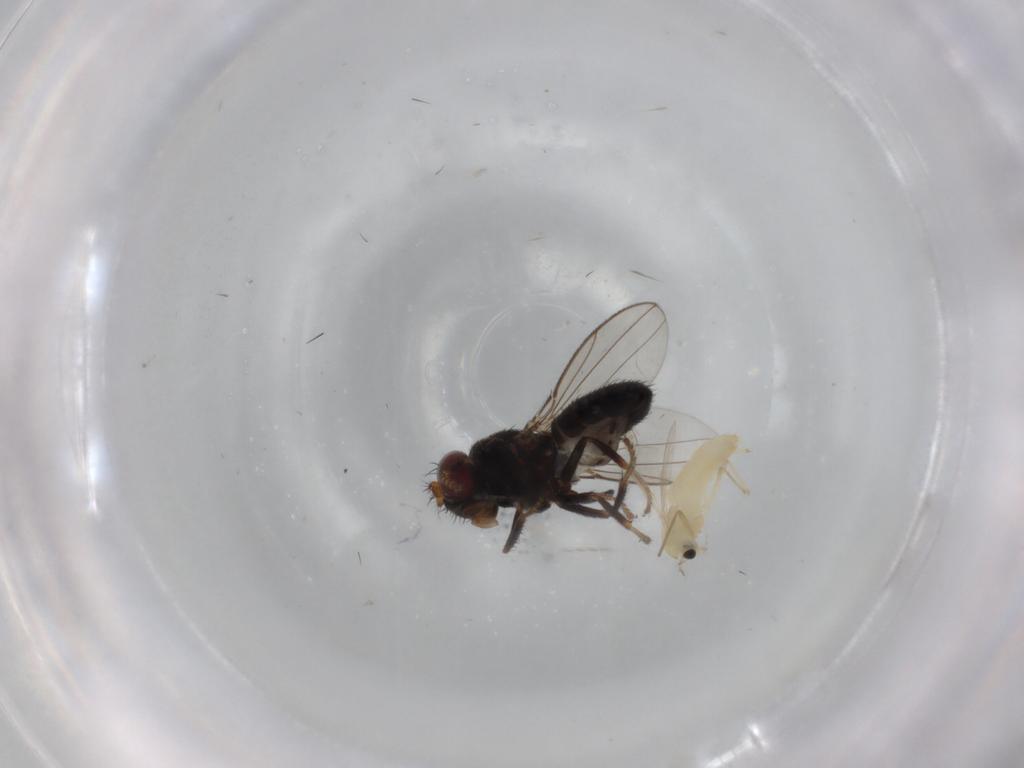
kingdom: Animalia
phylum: Arthropoda
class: Insecta
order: Diptera
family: Chironomidae
